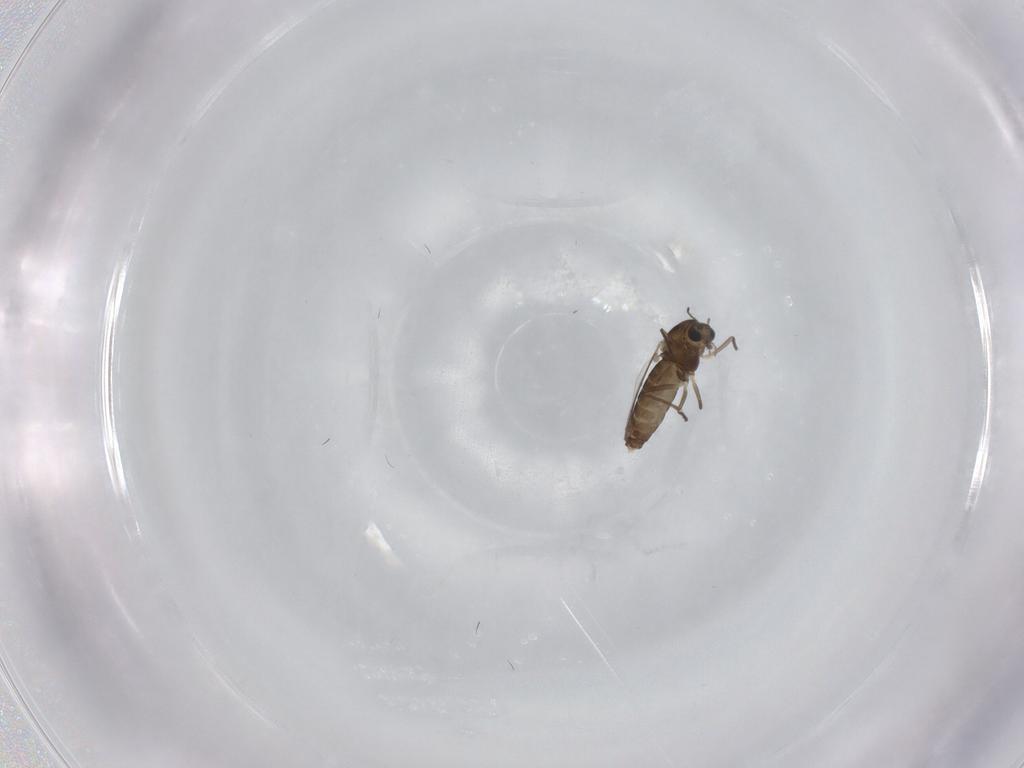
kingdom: Animalia
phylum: Arthropoda
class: Insecta
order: Diptera
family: Chironomidae
